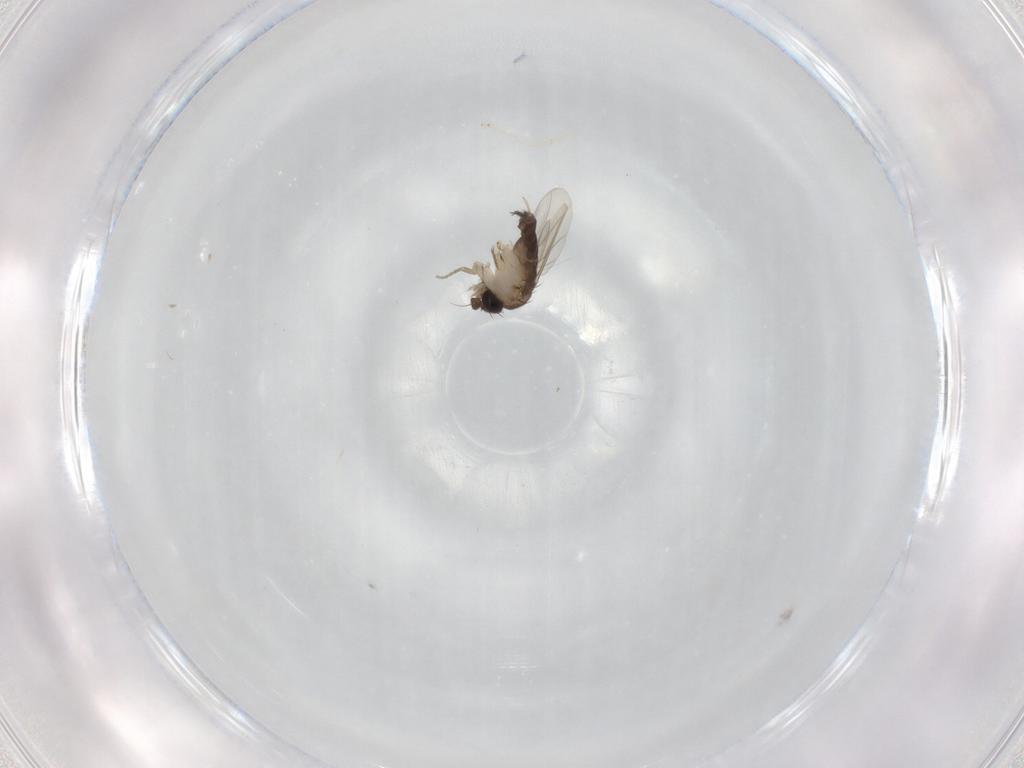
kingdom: Animalia
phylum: Arthropoda
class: Insecta
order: Diptera
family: Phoridae
